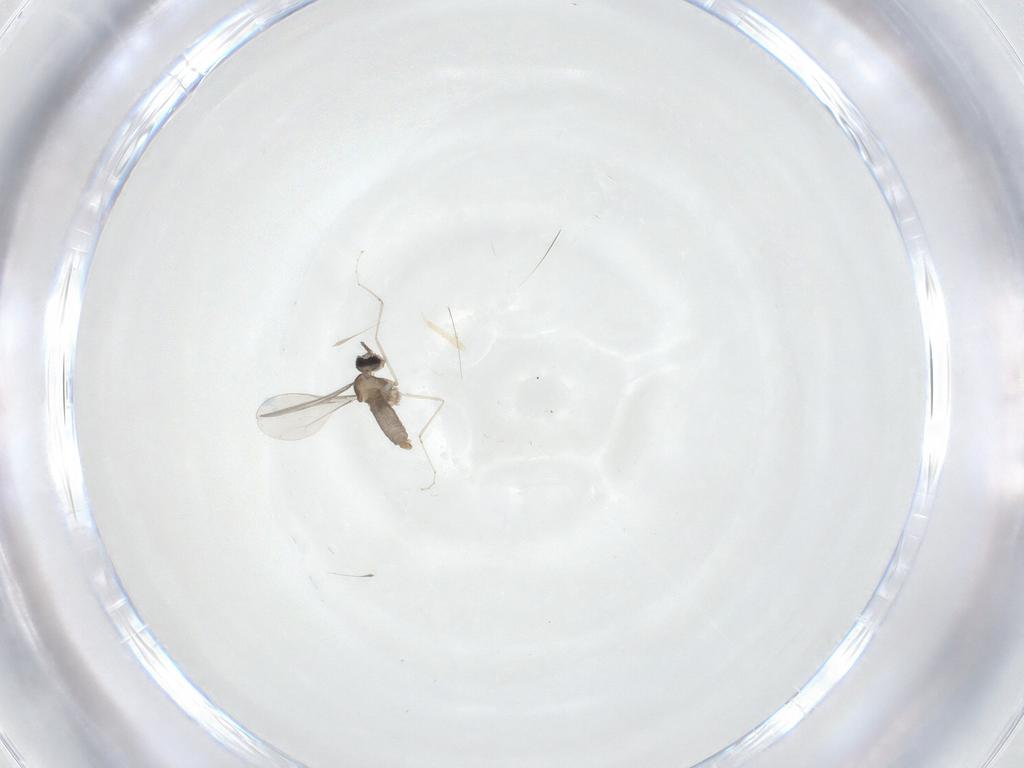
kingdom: Animalia
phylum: Arthropoda
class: Insecta
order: Diptera
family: Cecidomyiidae
